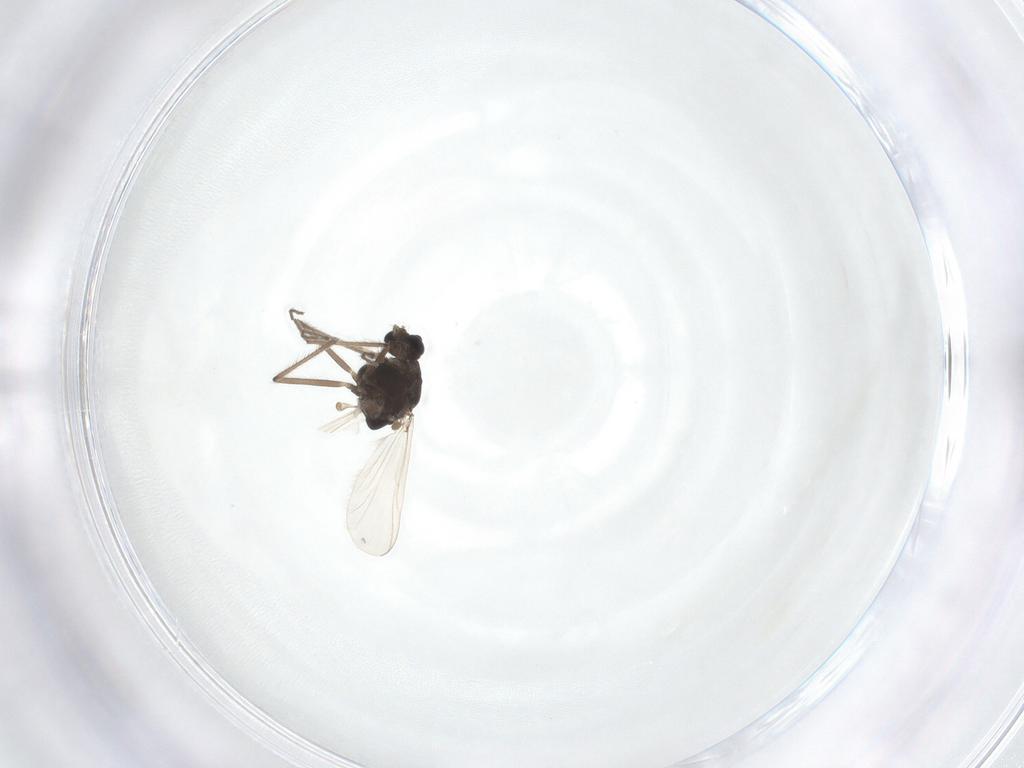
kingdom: Animalia
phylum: Arthropoda
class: Insecta
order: Diptera
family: Chironomidae
